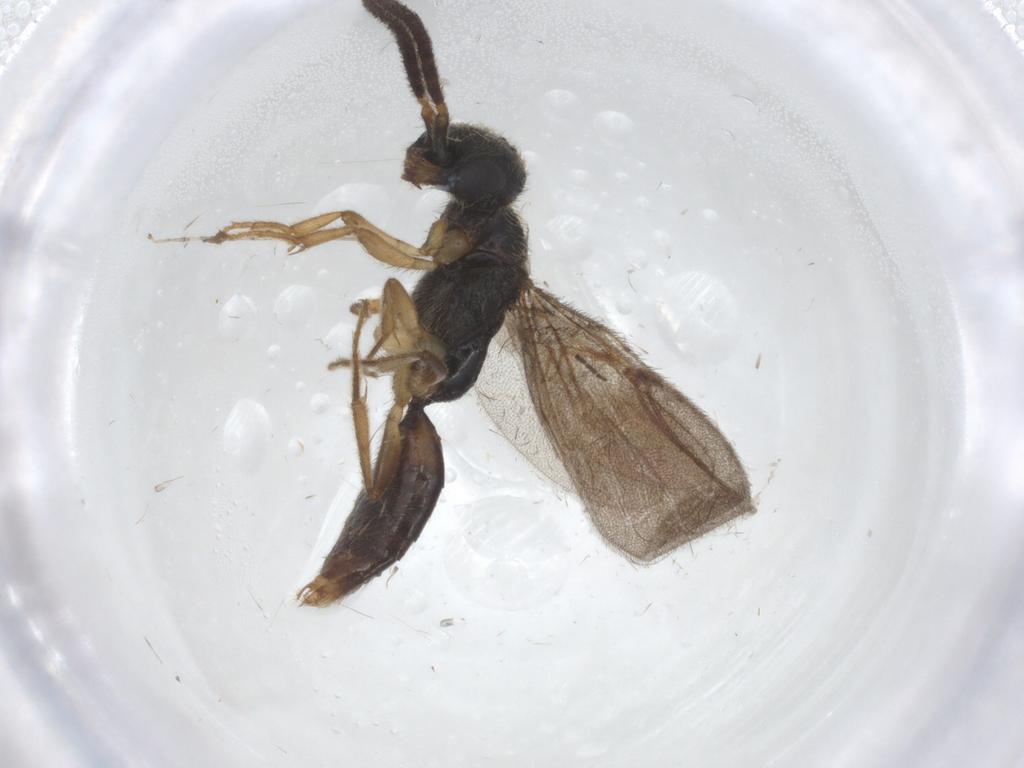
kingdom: Animalia
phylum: Arthropoda
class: Insecta
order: Hymenoptera
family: Bethylidae
